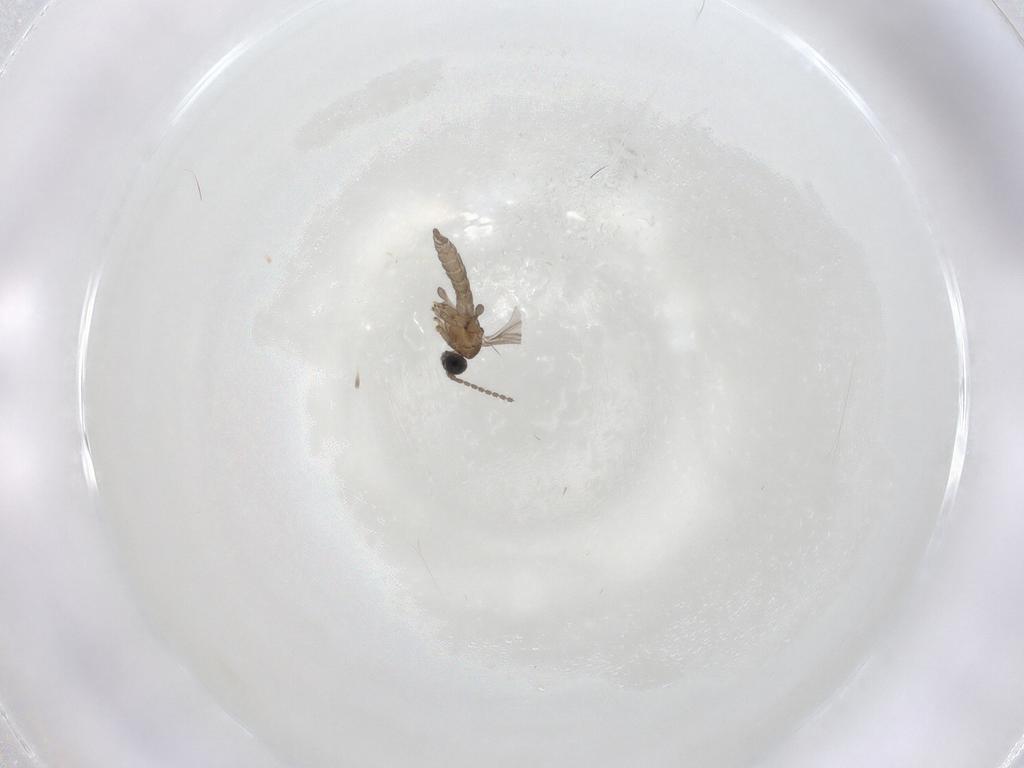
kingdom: Animalia
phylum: Arthropoda
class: Insecta
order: Diptera
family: Sciaridae
